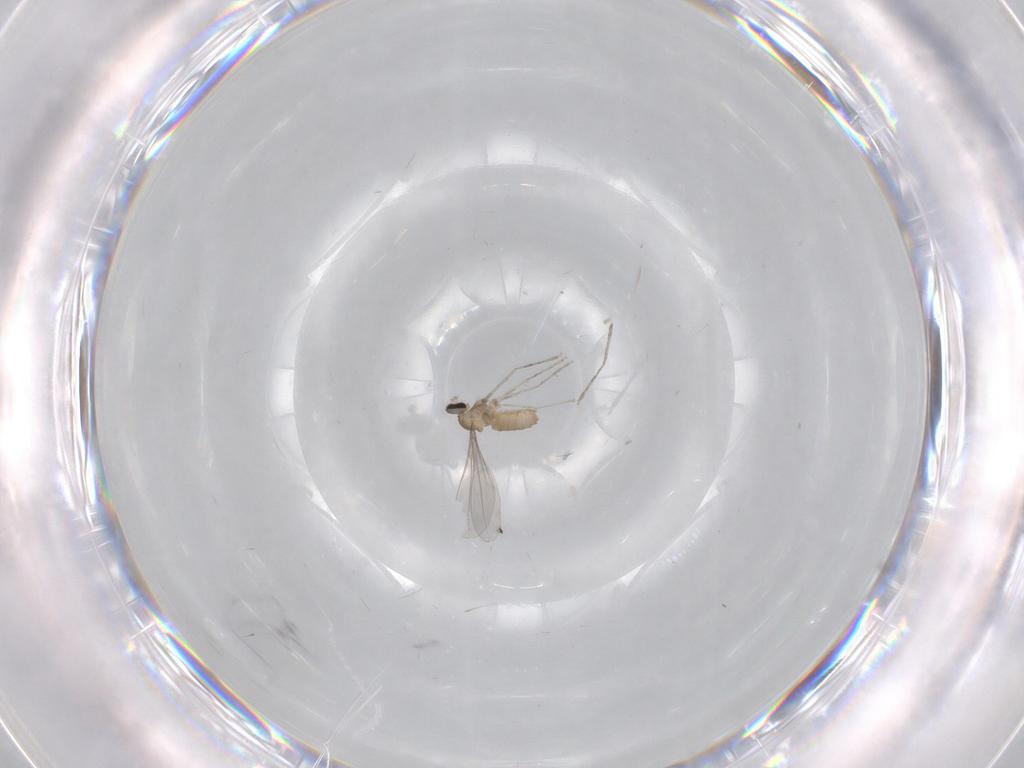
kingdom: Animalia
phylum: Arthropoda
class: Insecta
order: Diptera
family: Cecidomyiidae
